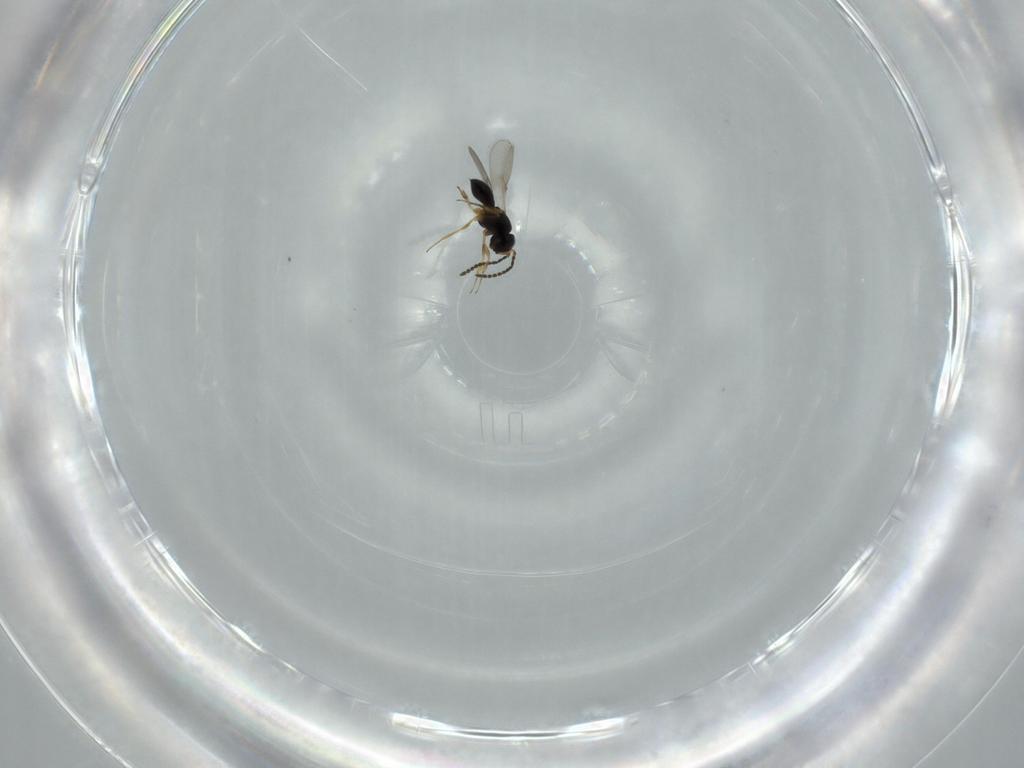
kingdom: Animalia
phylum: Arthropoda
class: Insecta
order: Hymenoptera
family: Scelionidae
